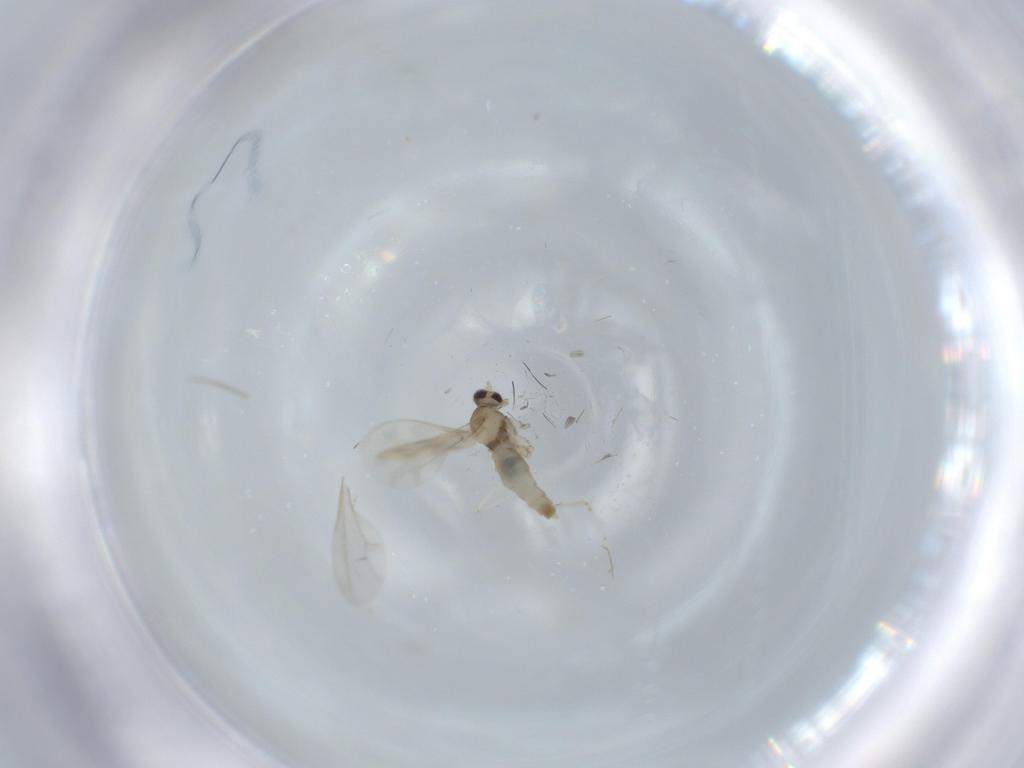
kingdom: Animalia
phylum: Arthropoda
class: Insecta
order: Diptera
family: Cecidomyiidae
